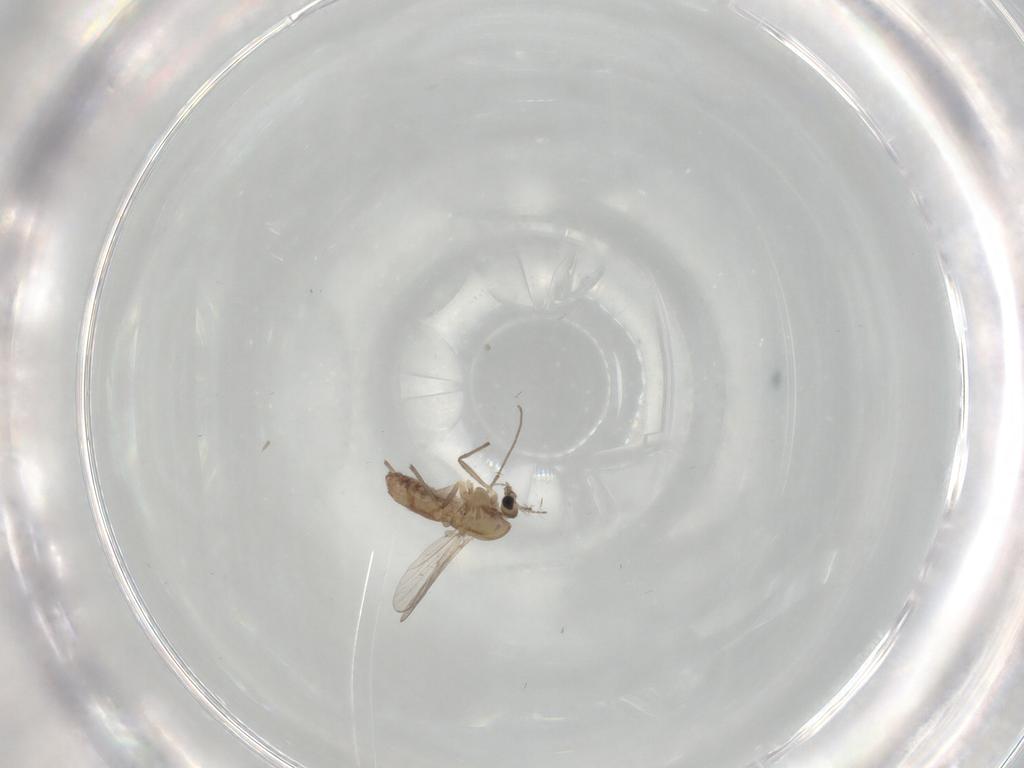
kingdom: Animalia
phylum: Arthropoda
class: Insecta
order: Diptera
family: Chironomidae
